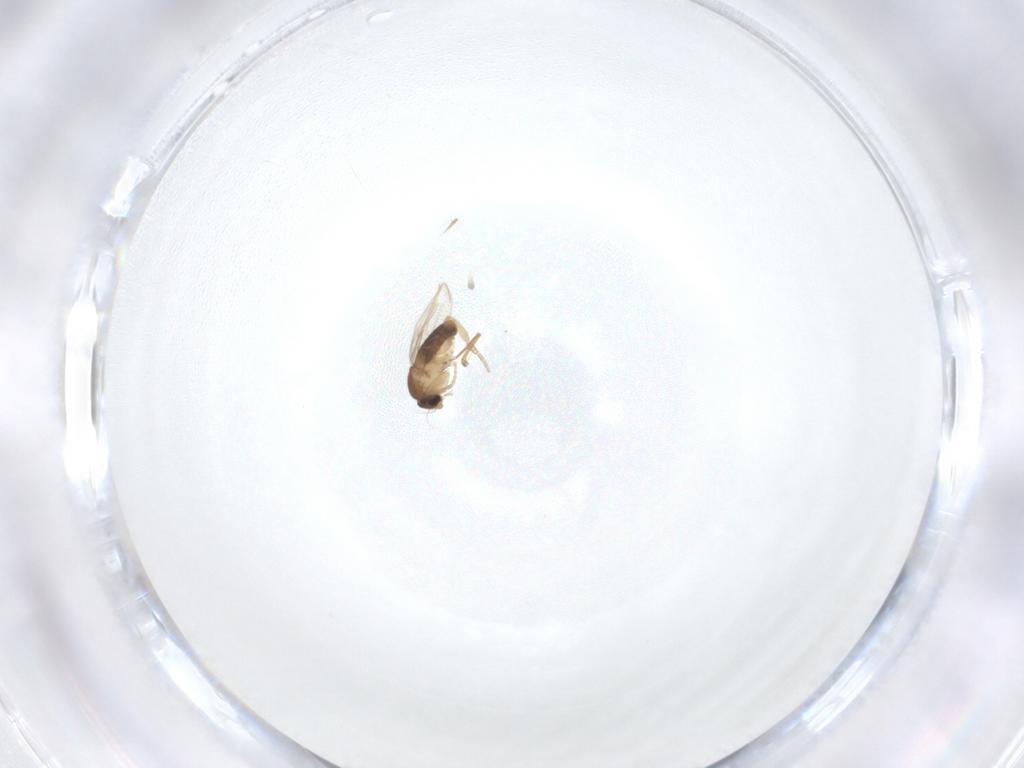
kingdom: Animalia
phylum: Arthropoda
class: Insecta
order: Diptera
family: Phoridae
